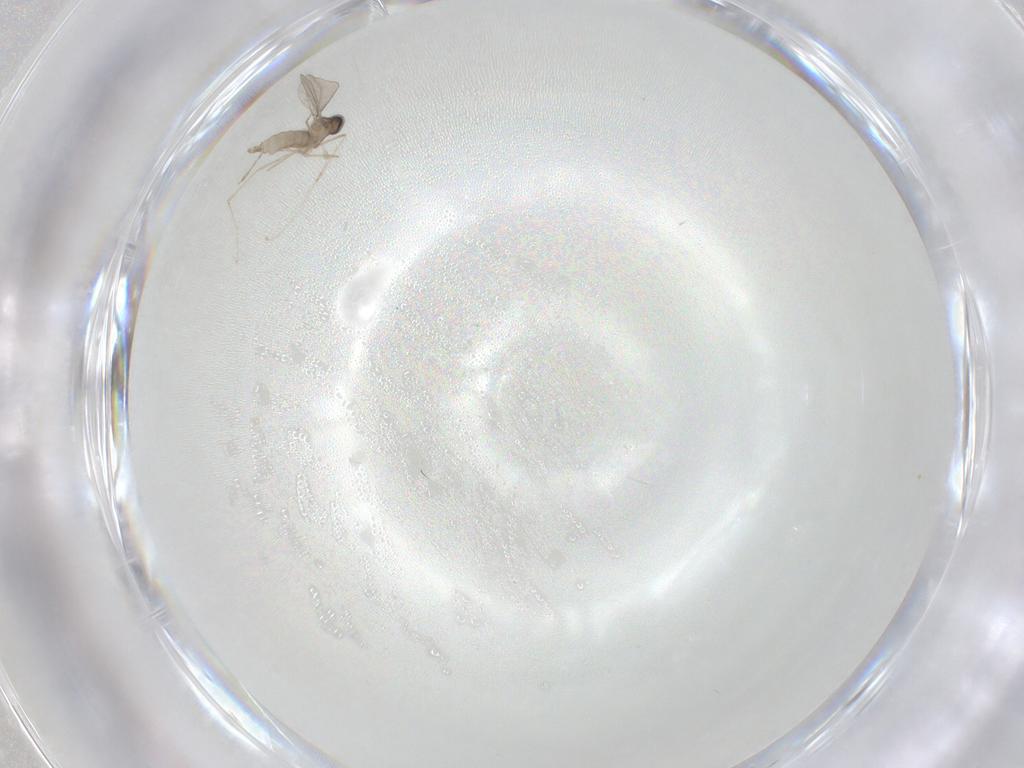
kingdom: Animalia
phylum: Arthropoda
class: Insecta
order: Diptera
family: Cecidomyiidae
